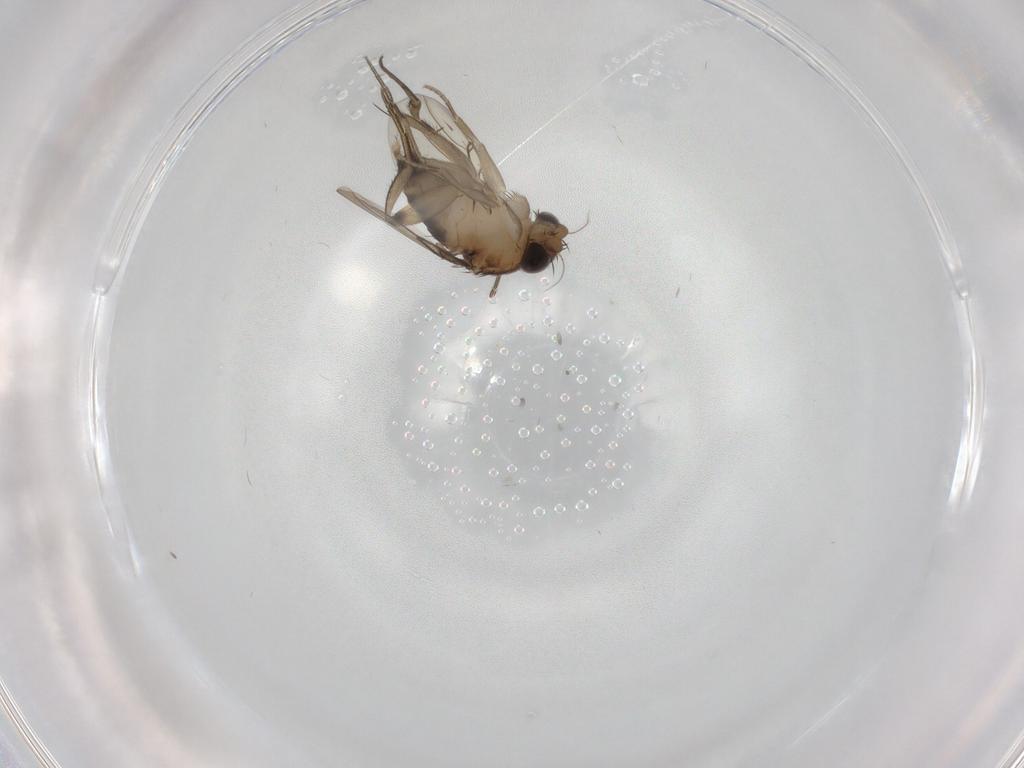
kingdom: Animalia
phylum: Arthropoda
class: Insecta
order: Diptera
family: Phoridae
